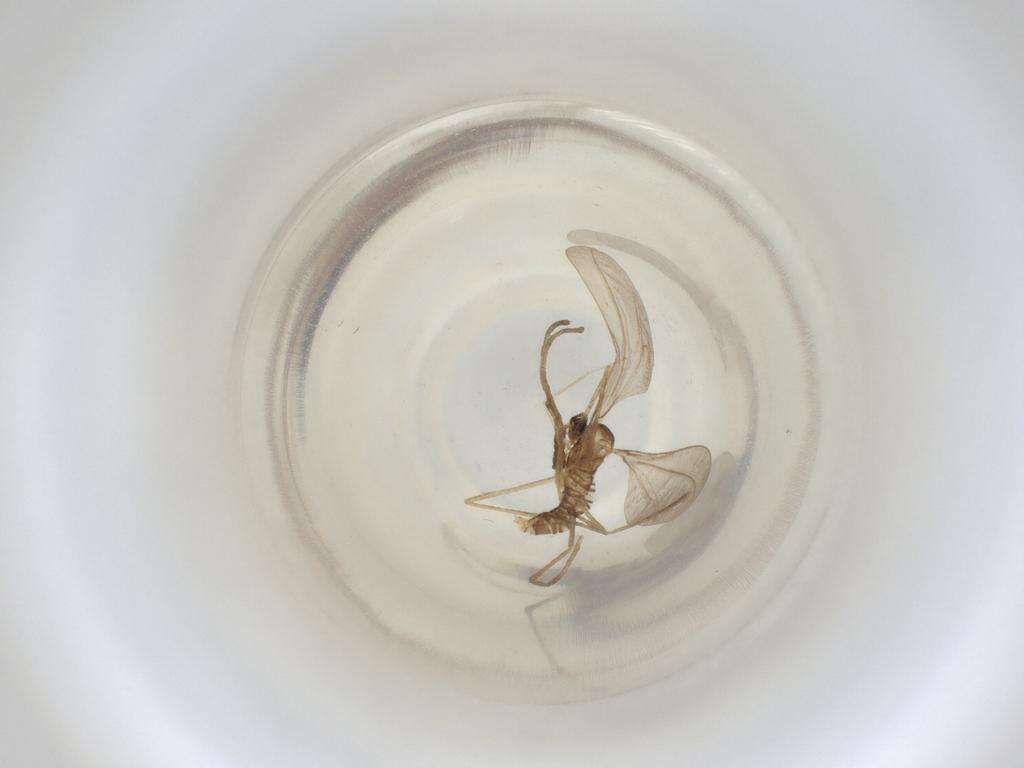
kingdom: Animalia
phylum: Arthropoda
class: Insecta
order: Diptera
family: Cecidomyiidae
